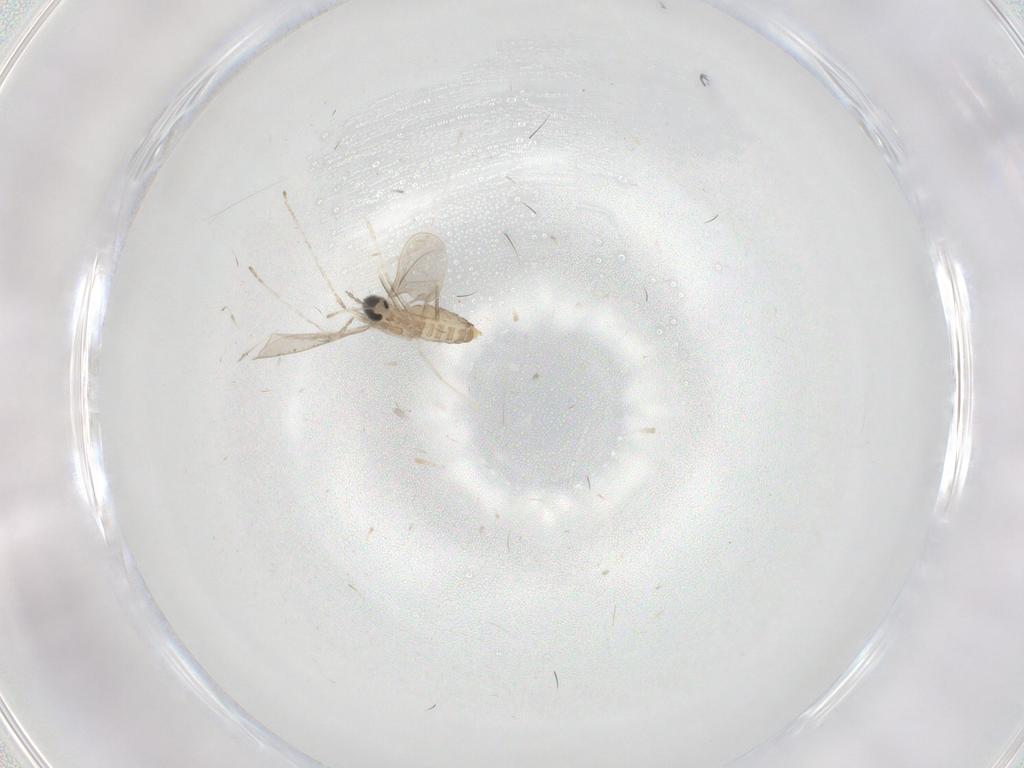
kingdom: Animalia
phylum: Arthropoda
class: Insecta
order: Diptera
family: Cecidomyiidae
